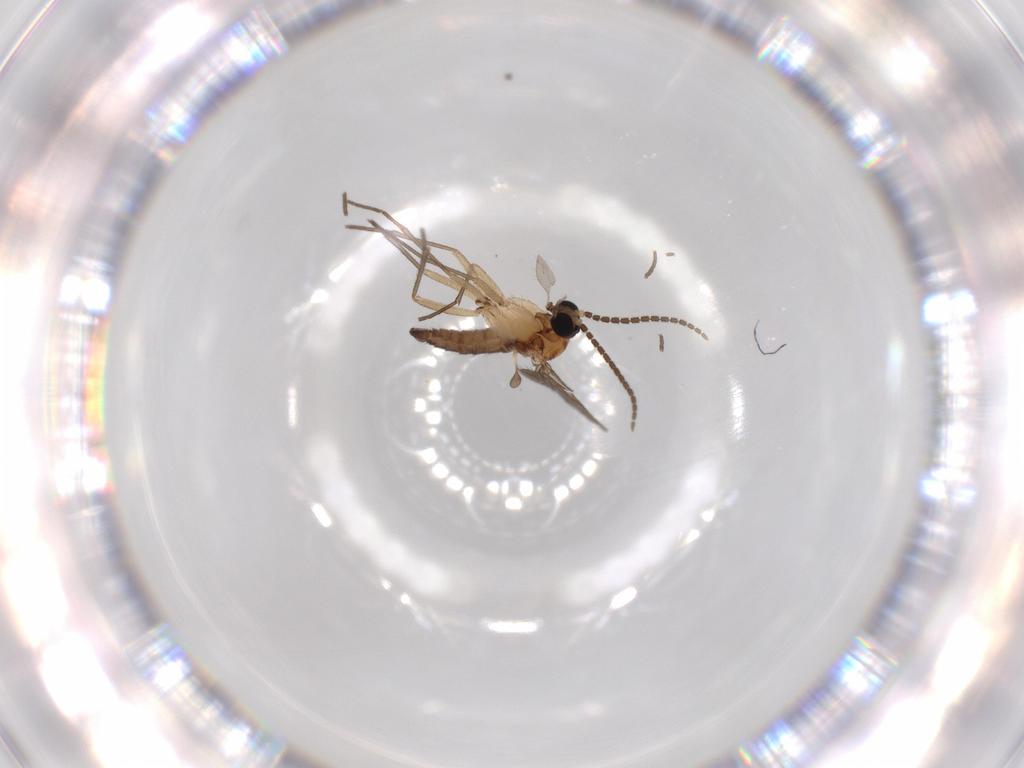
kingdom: Animalia
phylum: Arthropoda
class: Insecta
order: Diptera
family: Sciaridae
